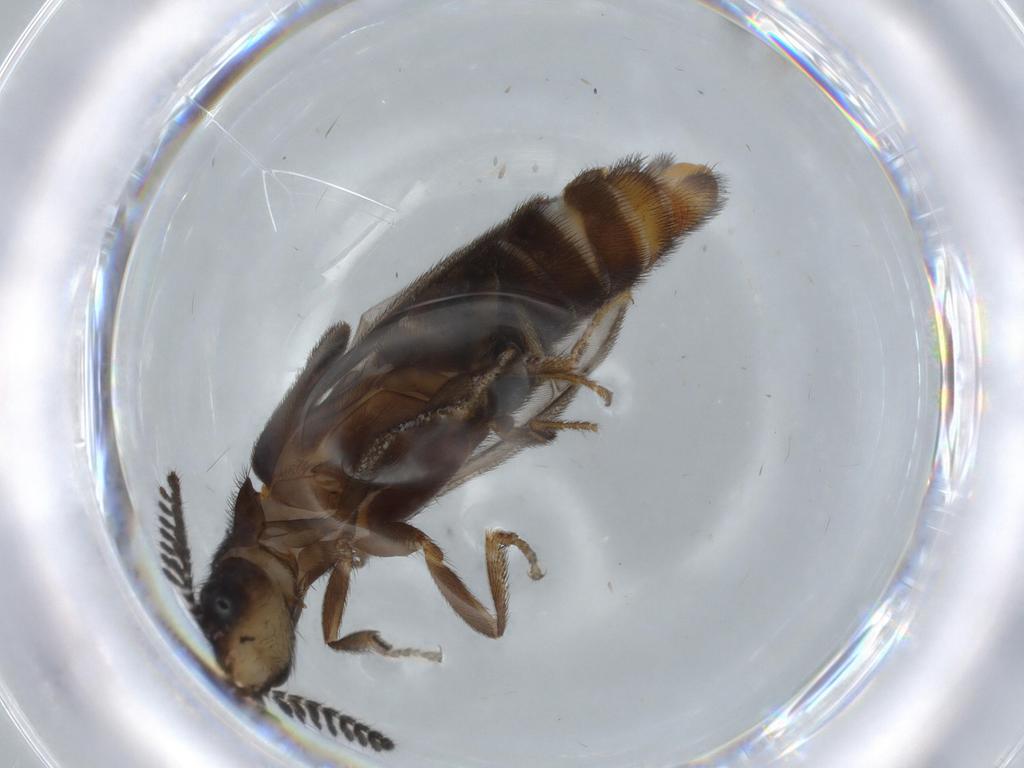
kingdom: Animalia
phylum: Arthropoda
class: Insecta
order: Coleoptera
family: Phengodidae
